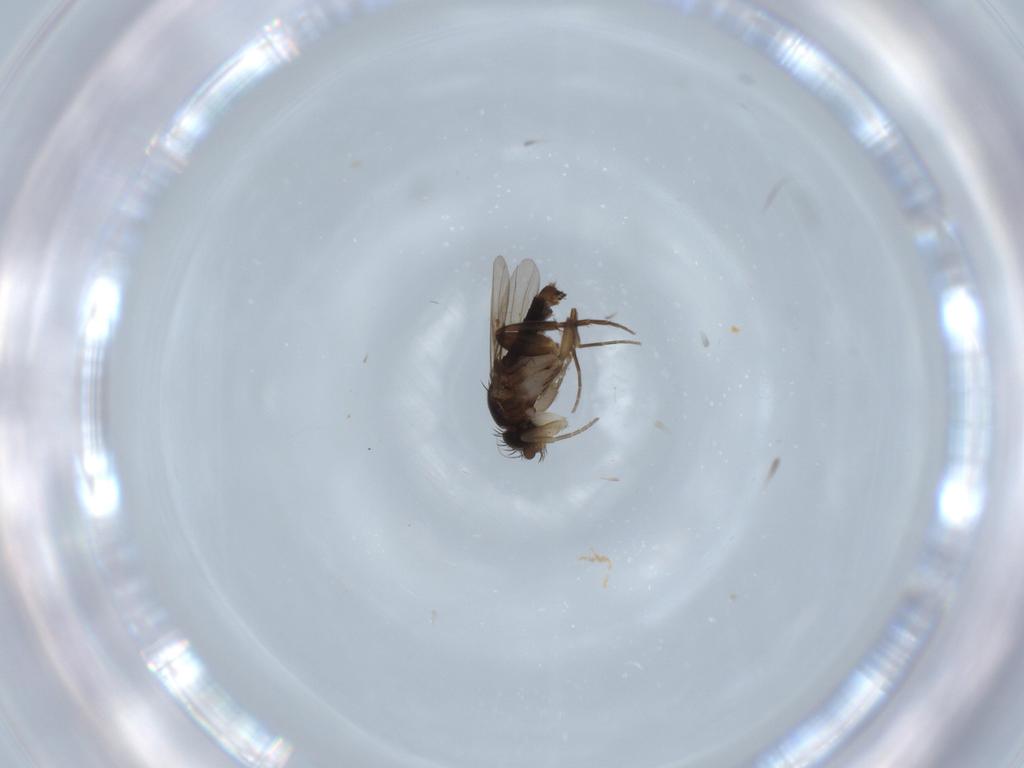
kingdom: Animalia
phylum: Arthropoda
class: Insecta
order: Diptera
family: Phoridae
